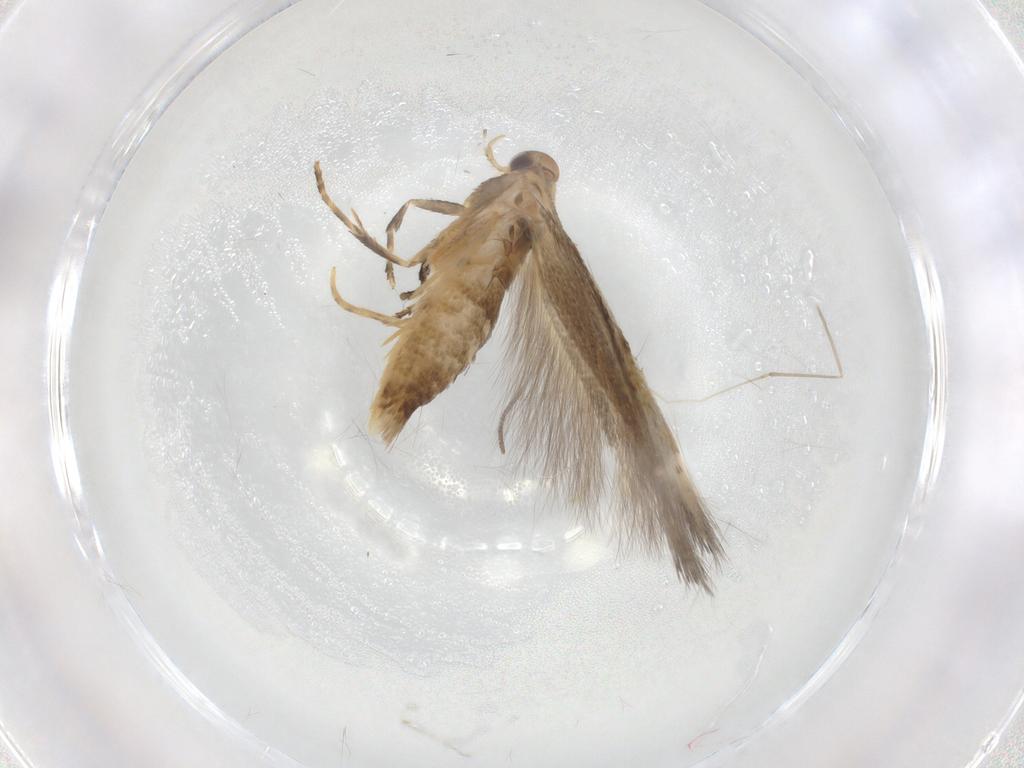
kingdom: Animalia
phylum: Arthropoda
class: Insecta
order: Lepidoptera
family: Elachistidae
